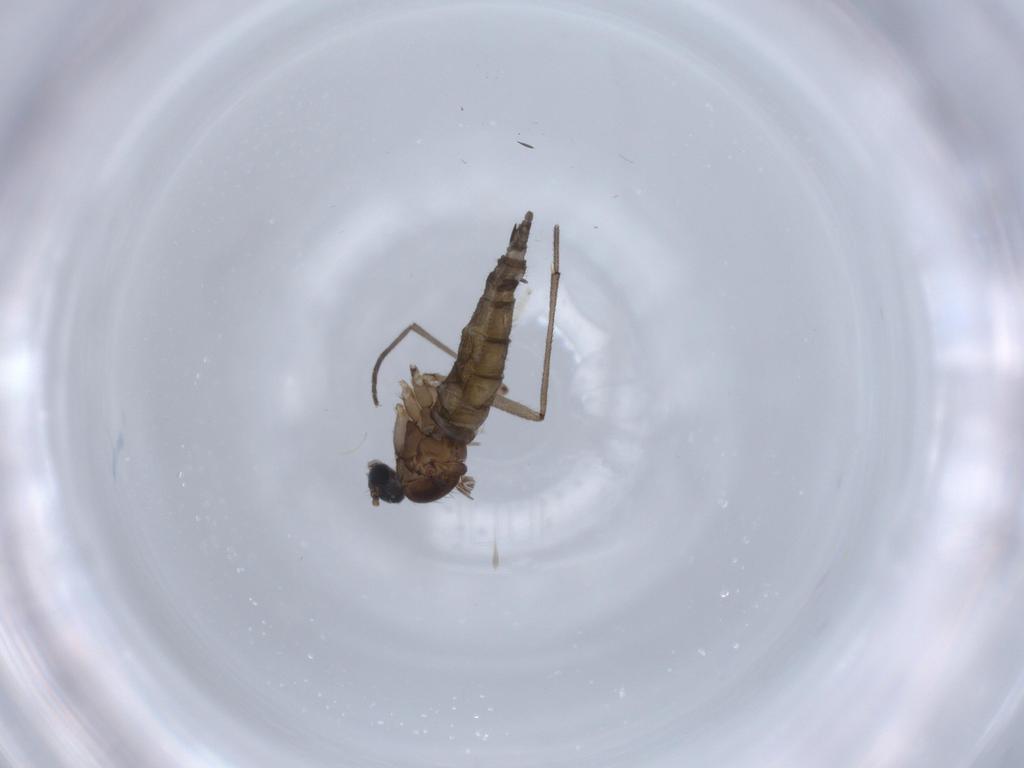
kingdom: Animalia
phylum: Arthropoda
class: Insecta
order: Diptera
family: Sciaridae
